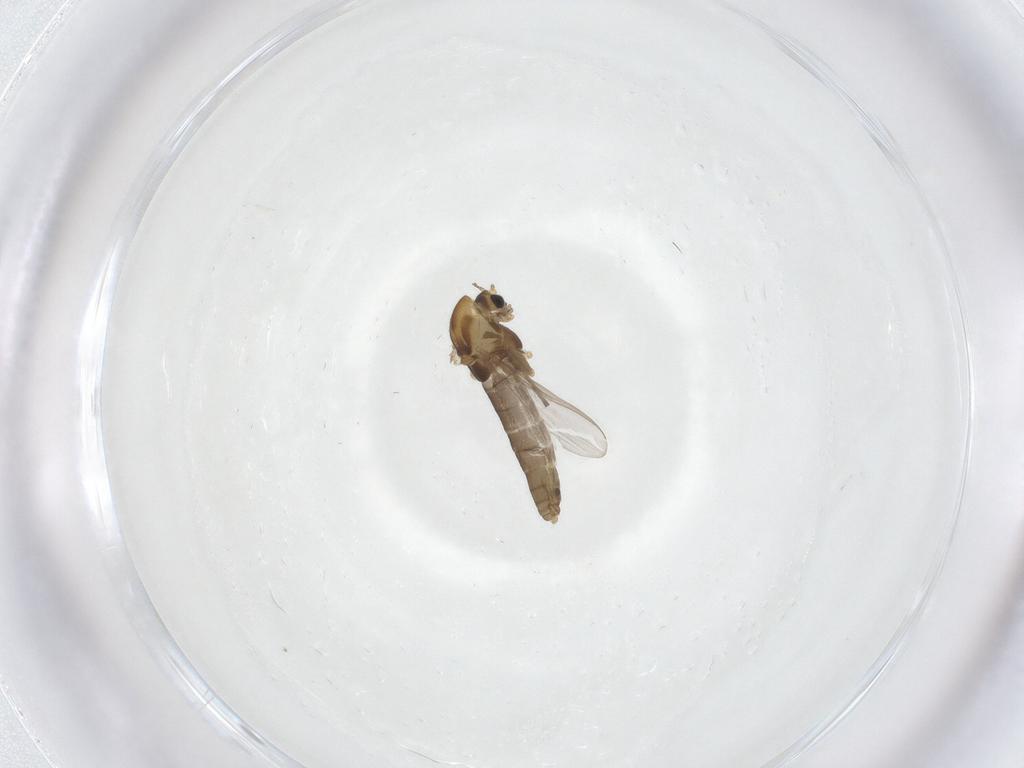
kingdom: Animalia
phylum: Arthropoda
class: Insecta
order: Diptera
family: Chironomidae
